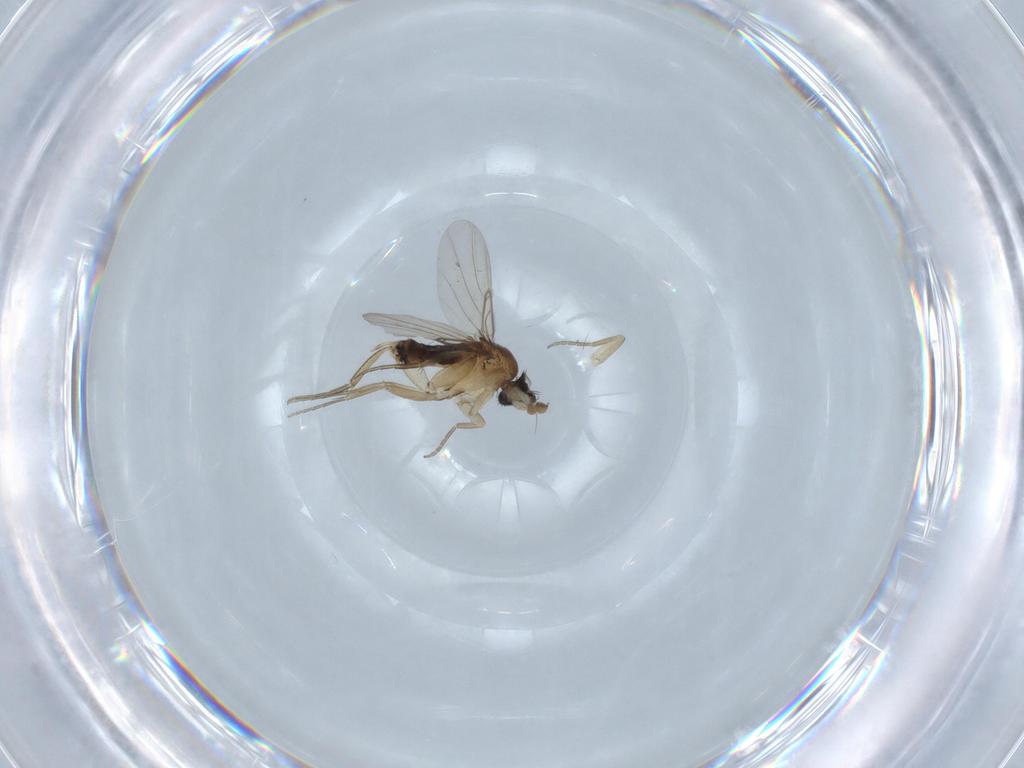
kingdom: Animalia
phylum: Arthropoda
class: Insecta
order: Diptera
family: Phoridae
